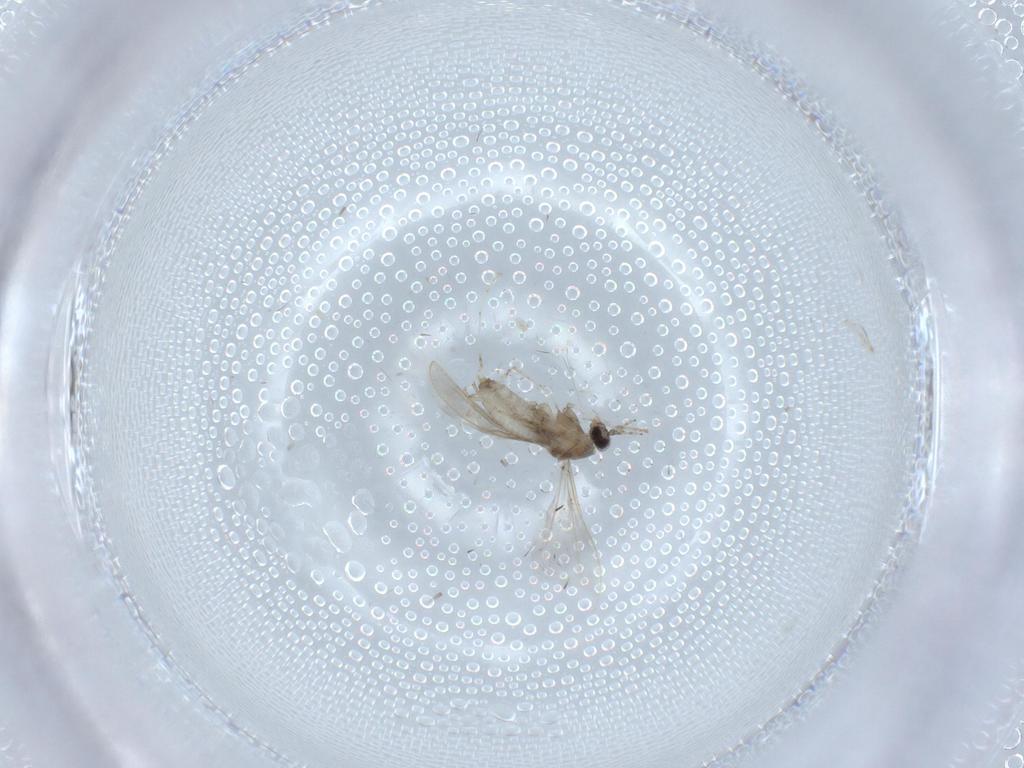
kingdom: Animalia
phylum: Arthropoda
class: Insecta
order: Diptera
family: Cecidomyiidae
